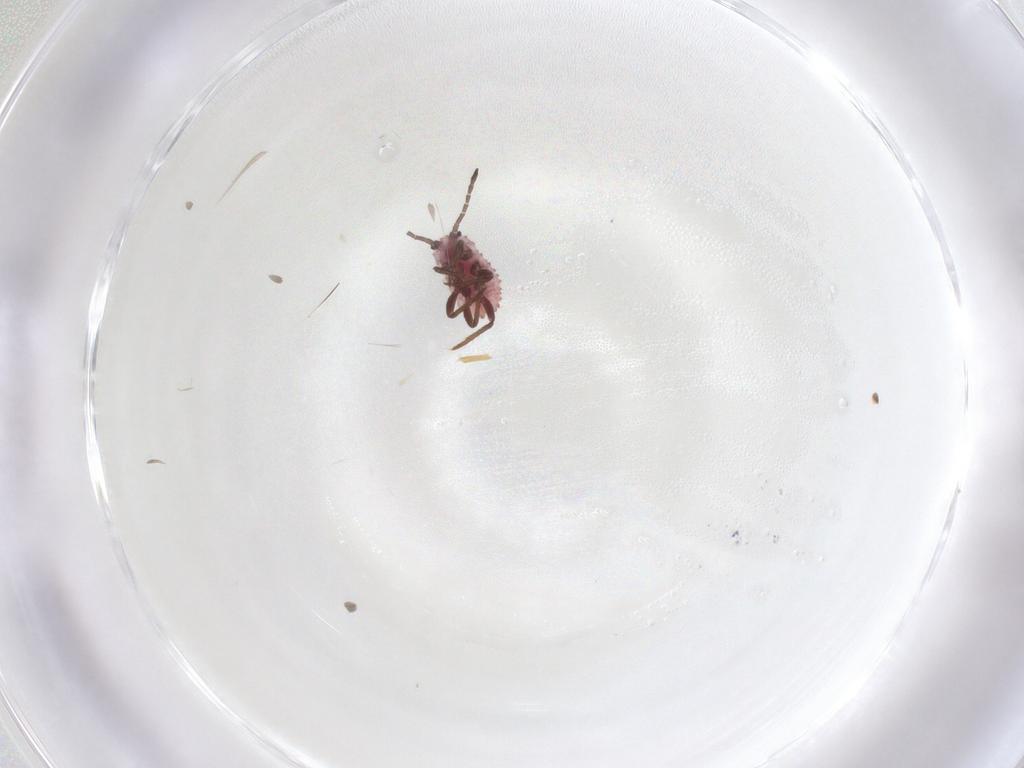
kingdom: Animalia
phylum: Arthropoda
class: Insecta
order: Hemiptera
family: Putoidae
